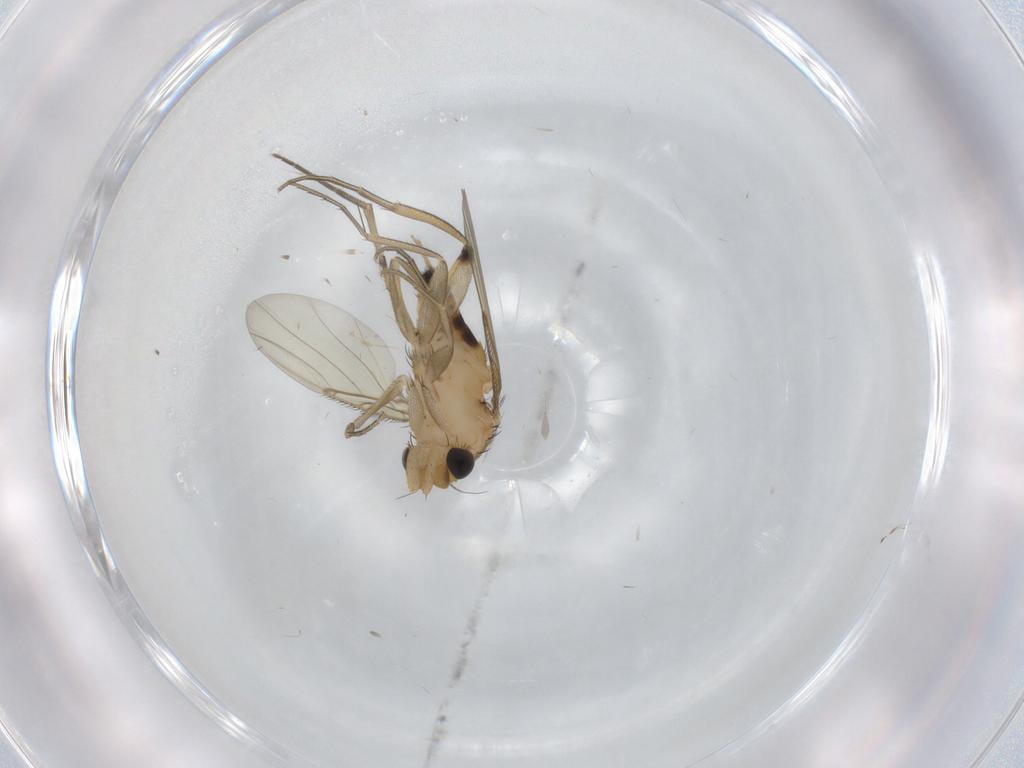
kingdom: Animalia
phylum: Arthropoda
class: Insecta
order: Diptera
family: Phoridae
